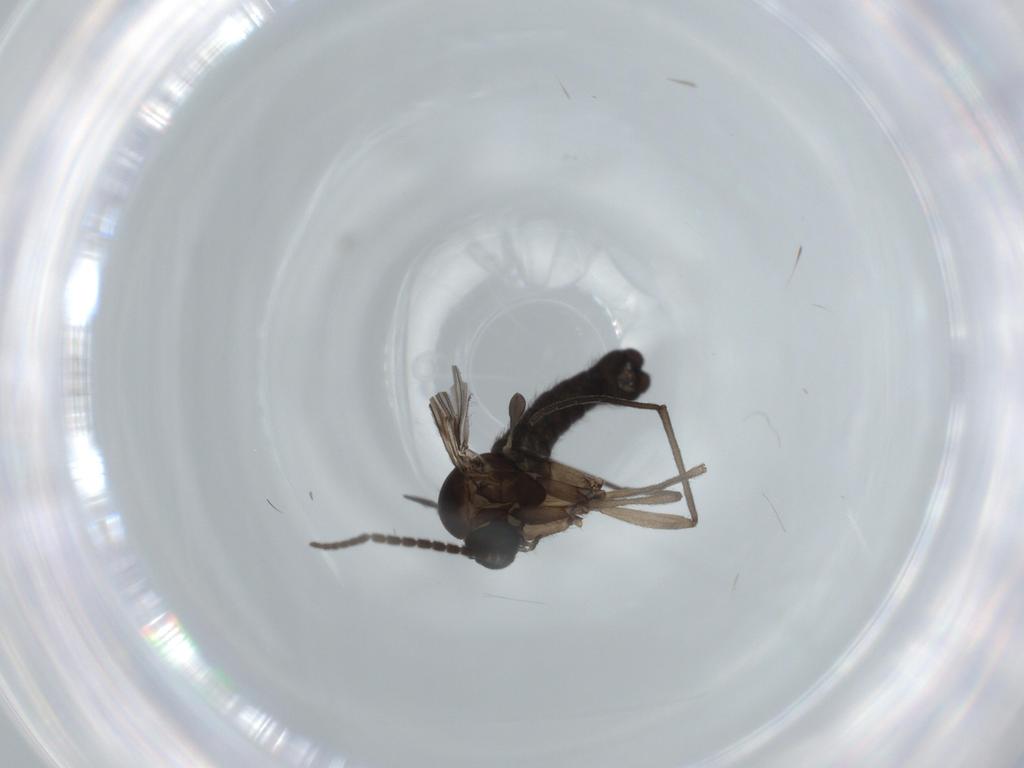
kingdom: Animalia
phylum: Arthropoda
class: Insecta
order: Diptera
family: Sciaridae
